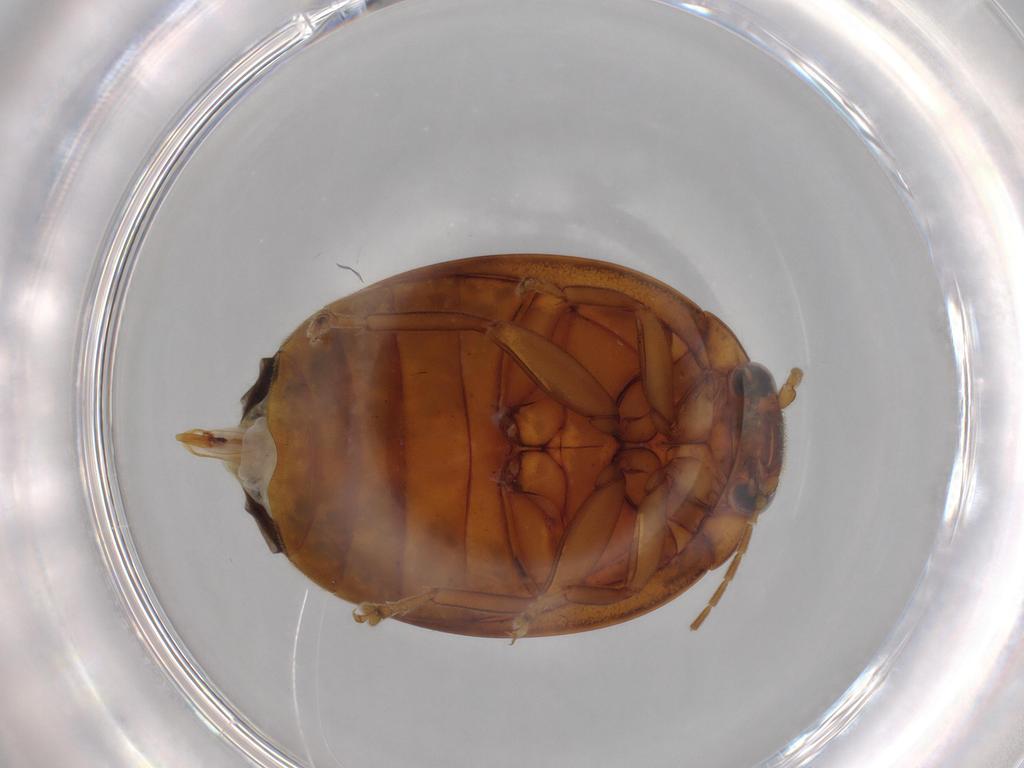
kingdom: Animalia
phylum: Arthropoda
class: Insecta
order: Coleoptera
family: Scirtidae
